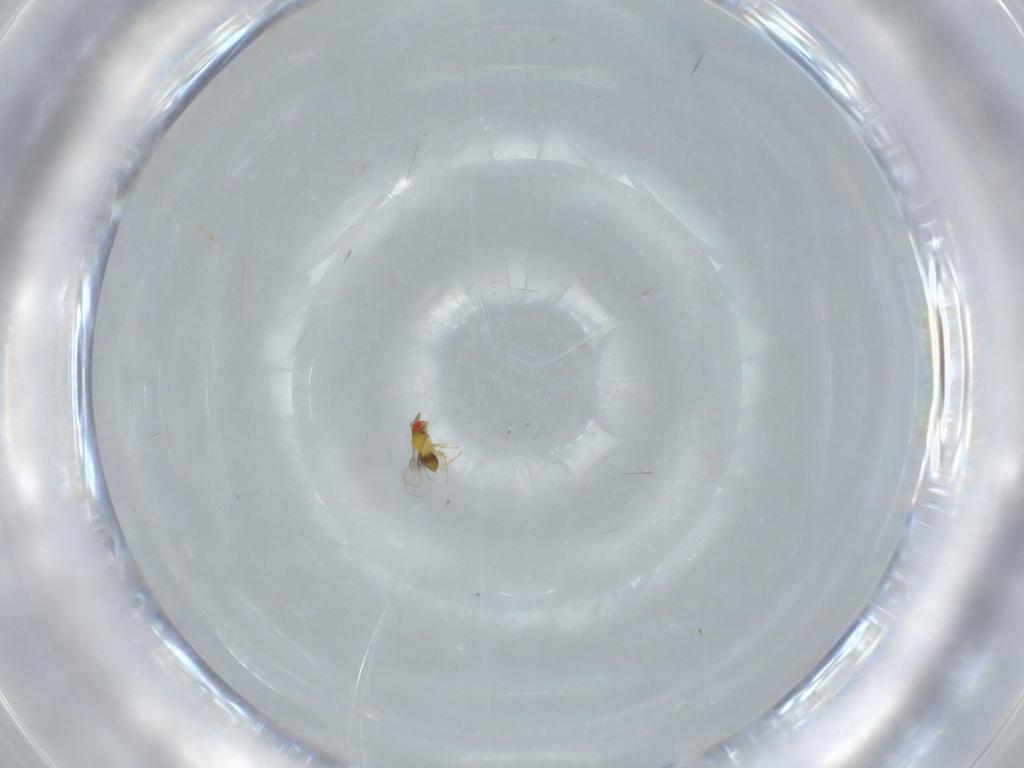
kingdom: Animalia
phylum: Arthropoda
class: Insecta
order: Hymenoptera
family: Trichogrammatidae
